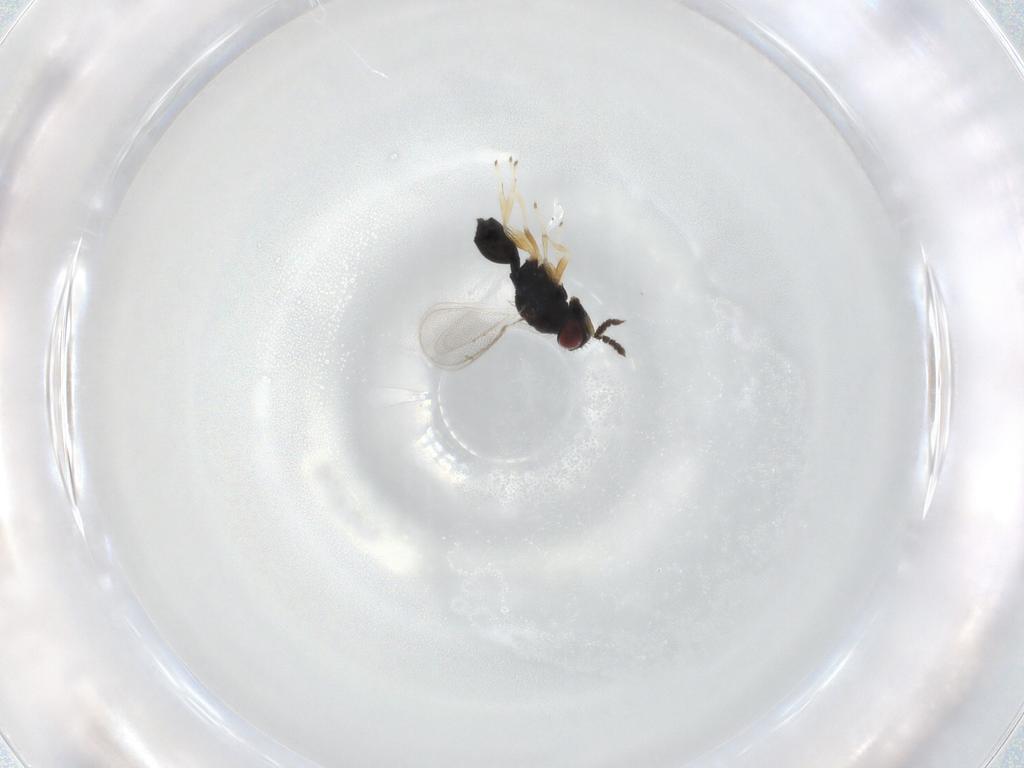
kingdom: Animalia
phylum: Arthropoda
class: Insecta
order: Hymenoptera
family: Eulophidae
